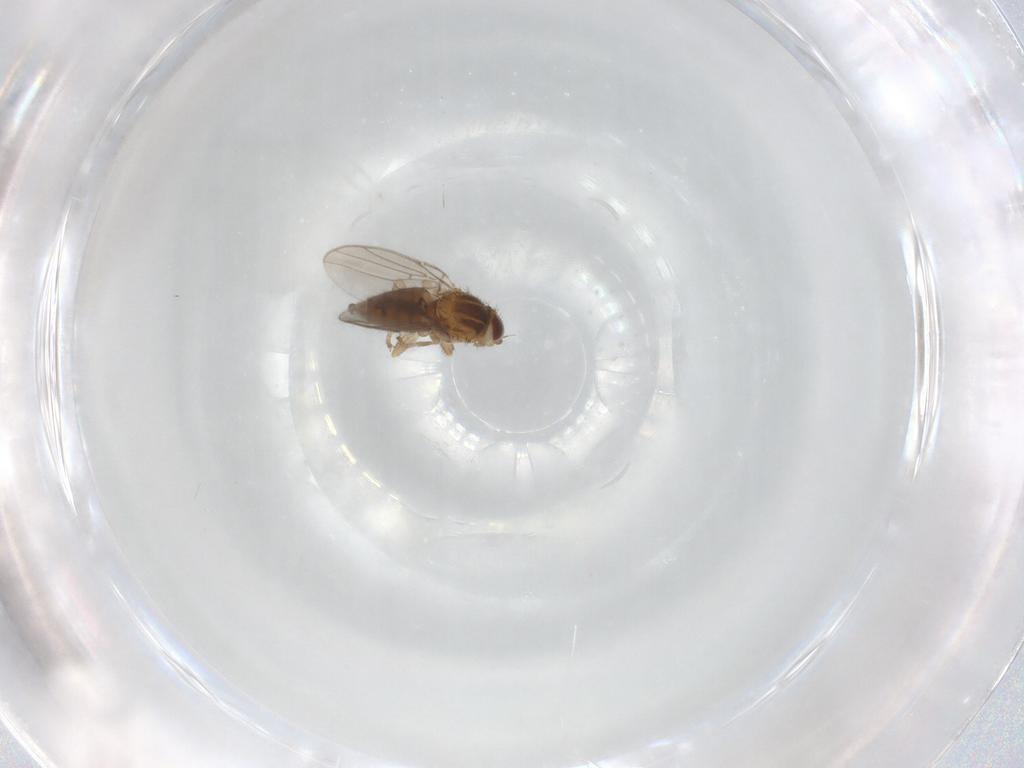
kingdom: Animalia
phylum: Arthropoda
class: Insecta
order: Diptera
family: Chloropidae
